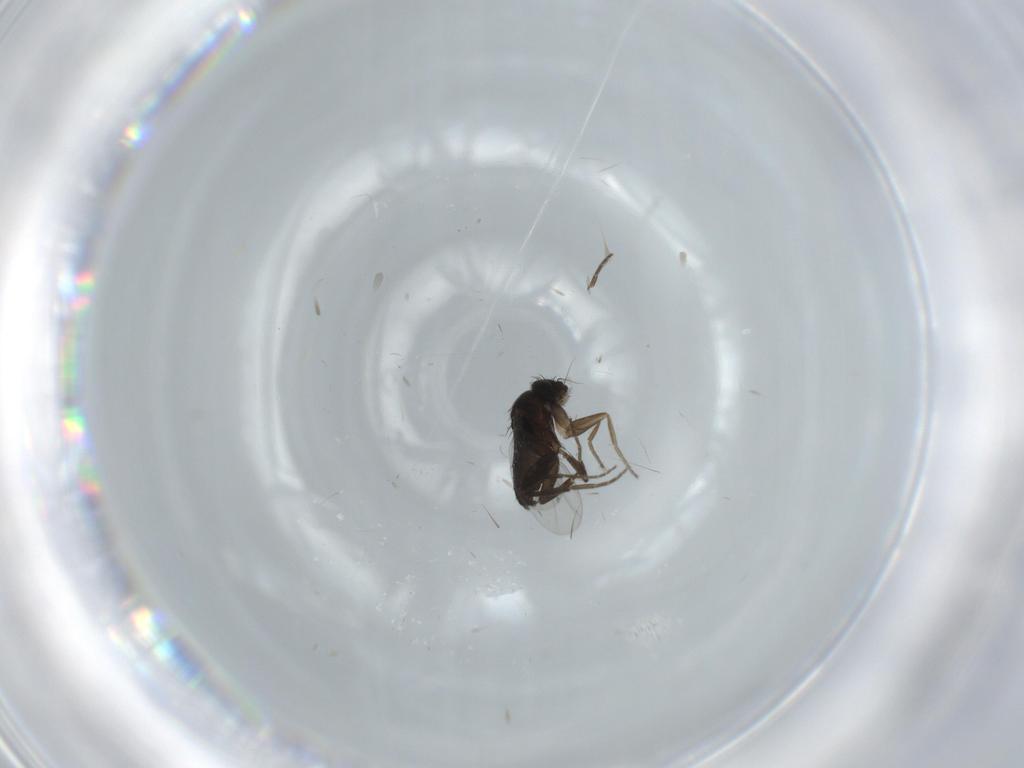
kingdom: Animalia
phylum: Arthropoda
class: Insecta
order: Diptera
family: Phoridae
